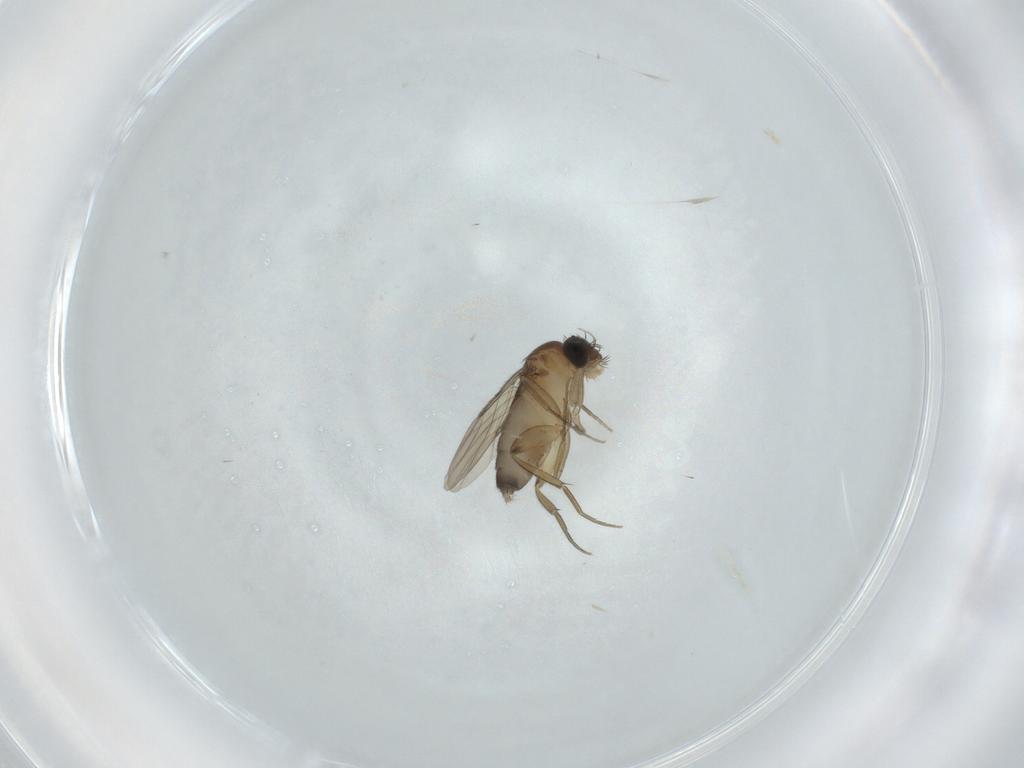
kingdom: Animalia
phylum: Arthropoda
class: Insecta
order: Diptera
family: Phoridae
